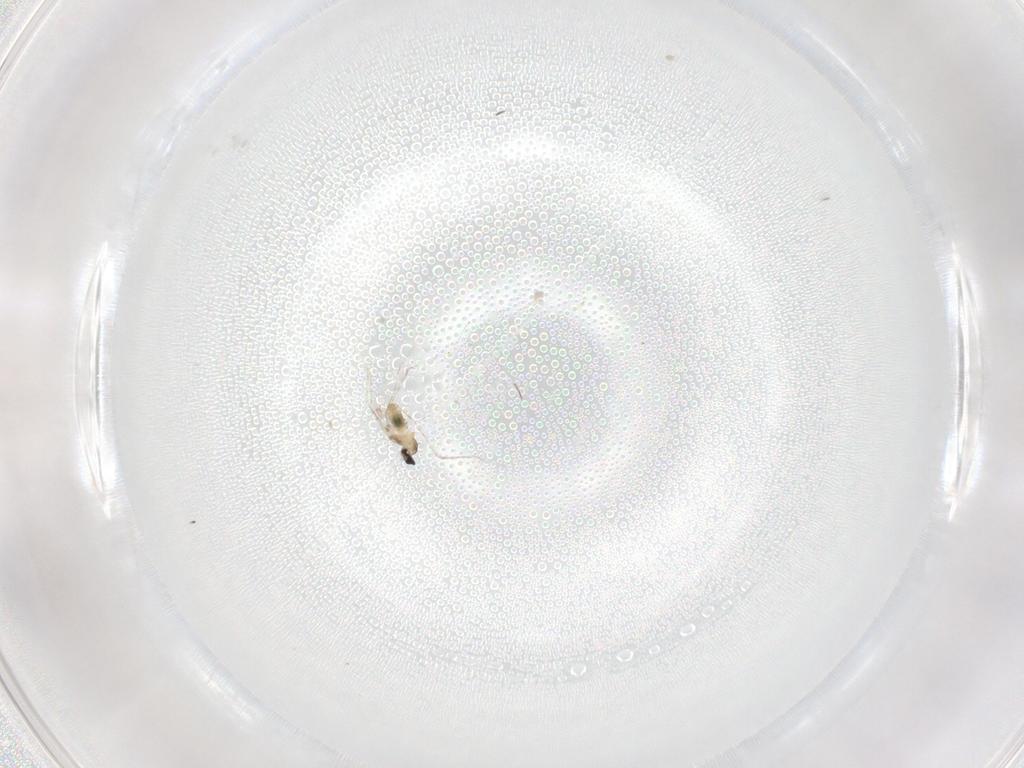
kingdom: Animalia
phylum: Arthropoda
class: Insecta
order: Diptera
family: Cecidomyiidae
